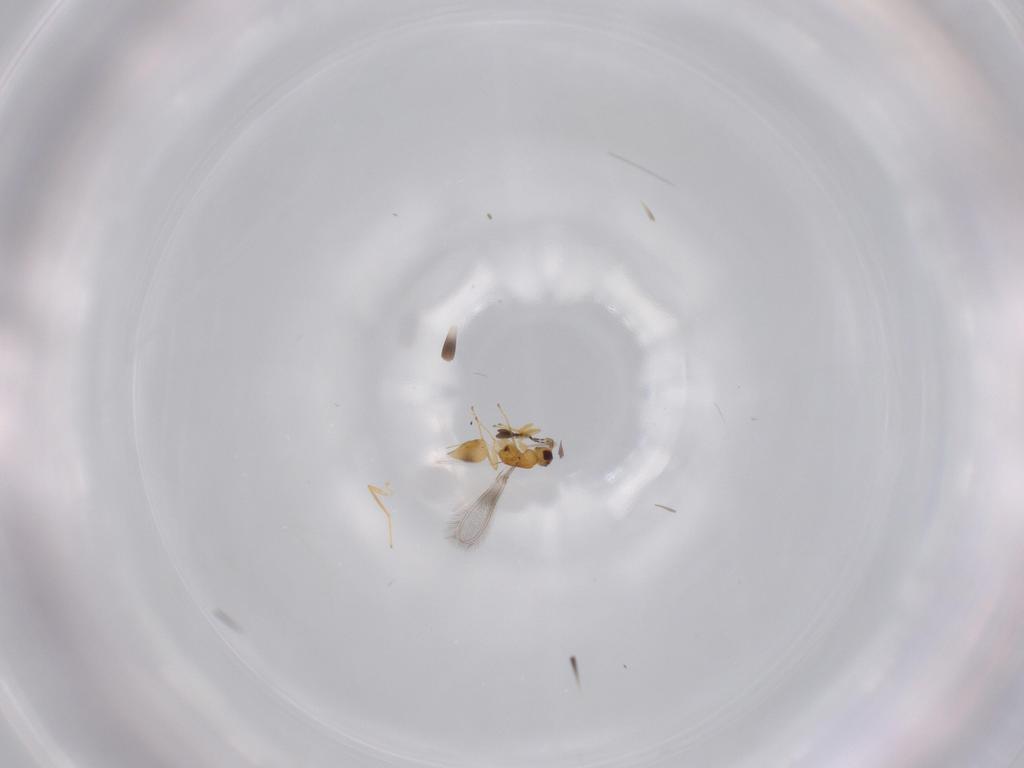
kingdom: Animalia
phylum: Arthropoda
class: Insecta
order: Hymenoptera
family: Mymaridae
